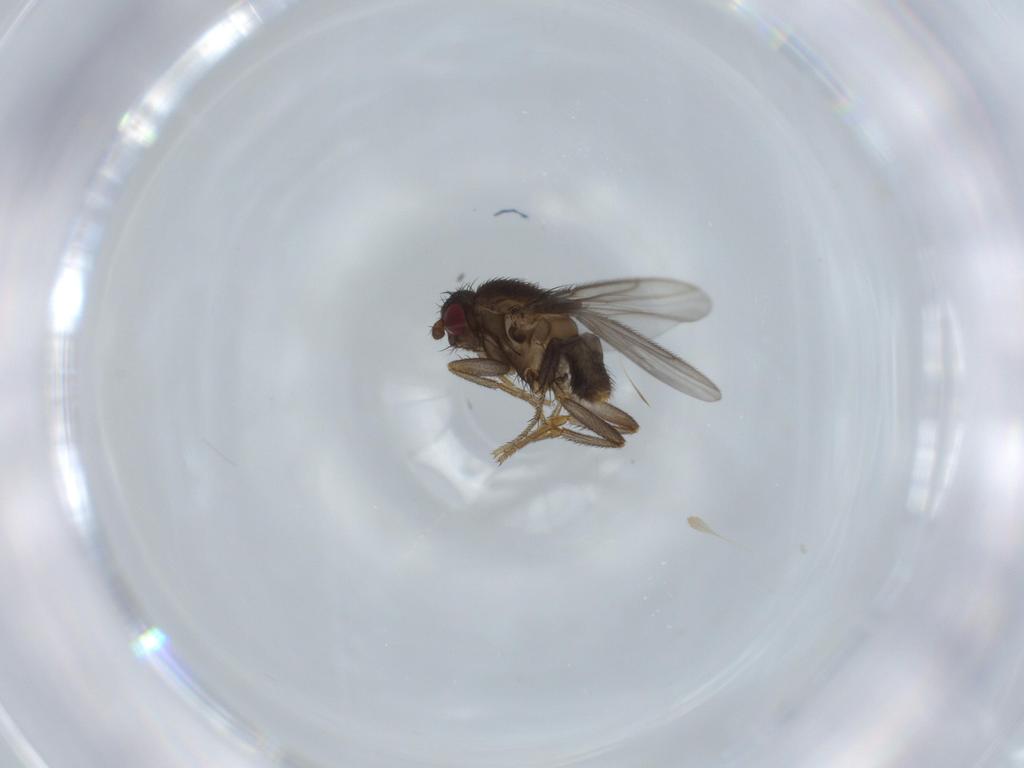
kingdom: Animalia
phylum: Arthropoda
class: Insecta
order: Diptera
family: Sphaeroceridae
